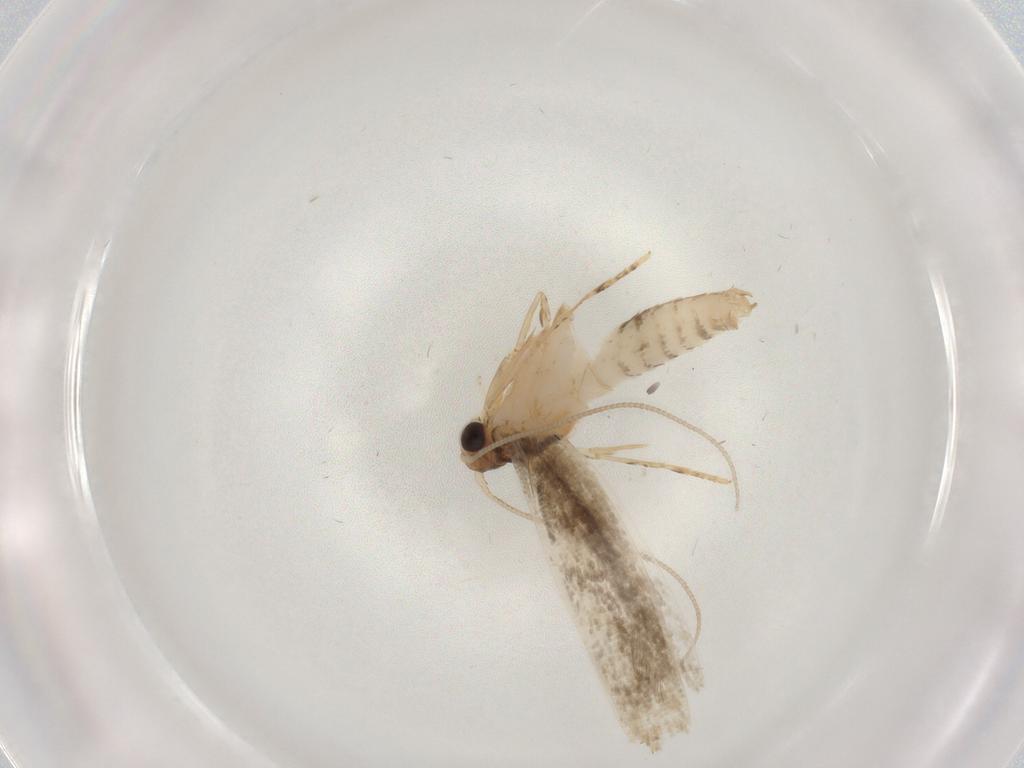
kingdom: Animalia
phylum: Arthropoda
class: Insecta
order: Lepidoptera
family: Tineidae
